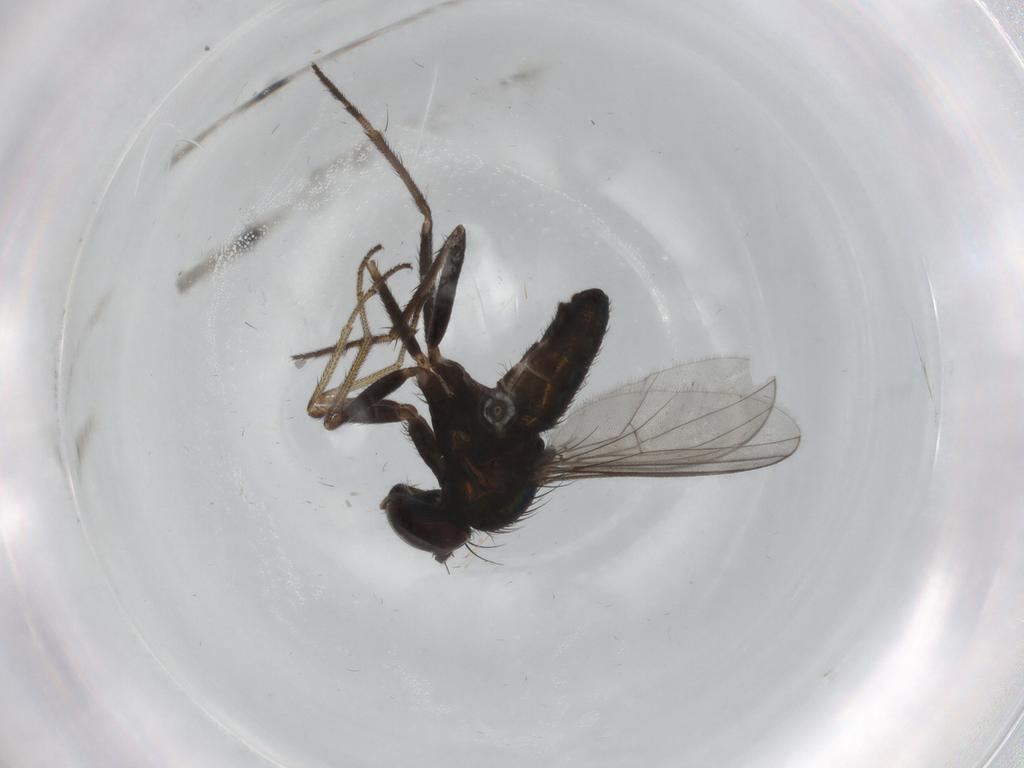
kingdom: Animalia
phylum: Arthropoda
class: Insecta
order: Diptera
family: Dolichopodidae
